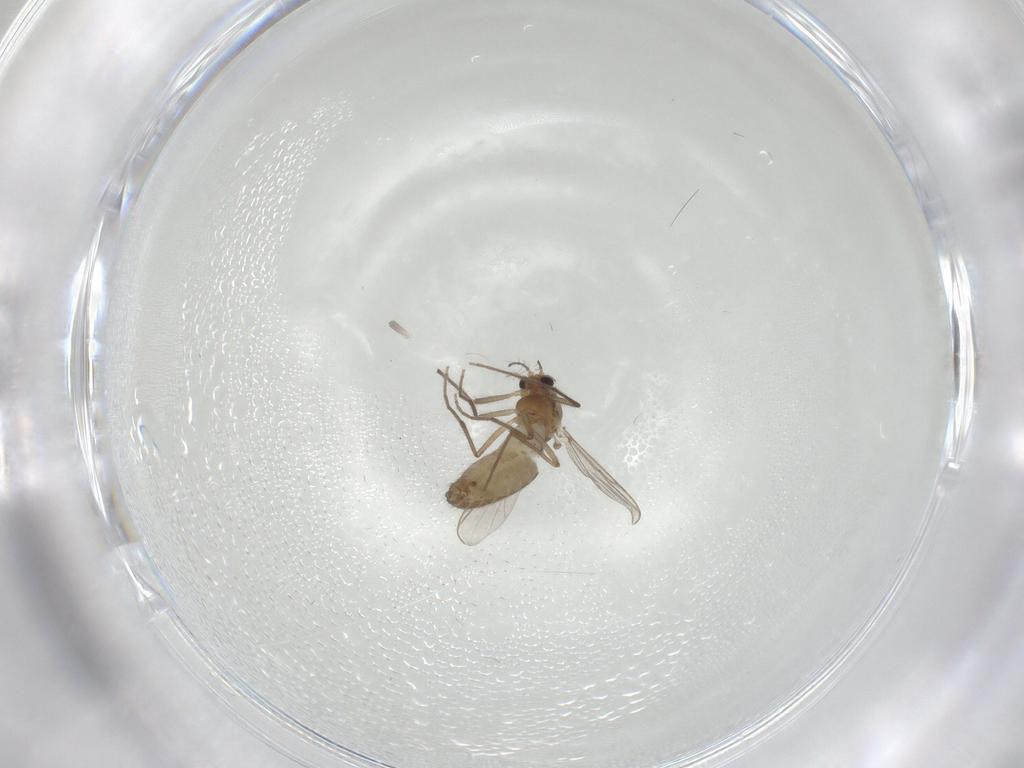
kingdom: Animalia
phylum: Arthropoda
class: Insecta
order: Diptera
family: Chironomidae
